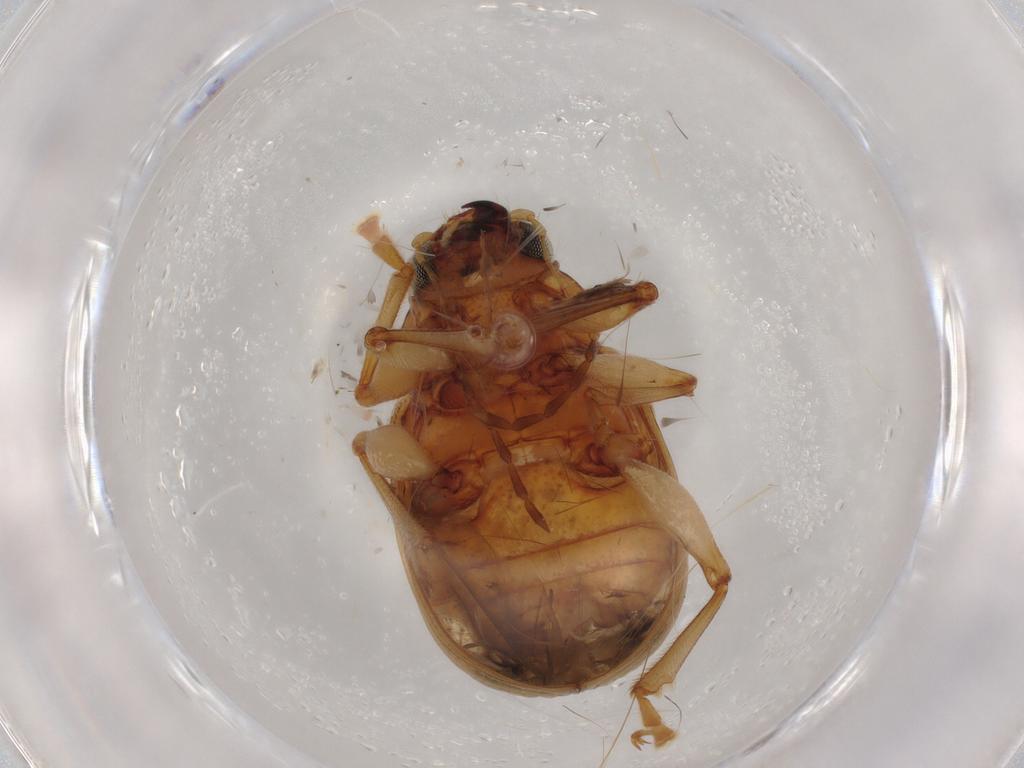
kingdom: Animalia
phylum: Arthropoda
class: Insecta
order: Coleoptera
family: Chrysomelidae
